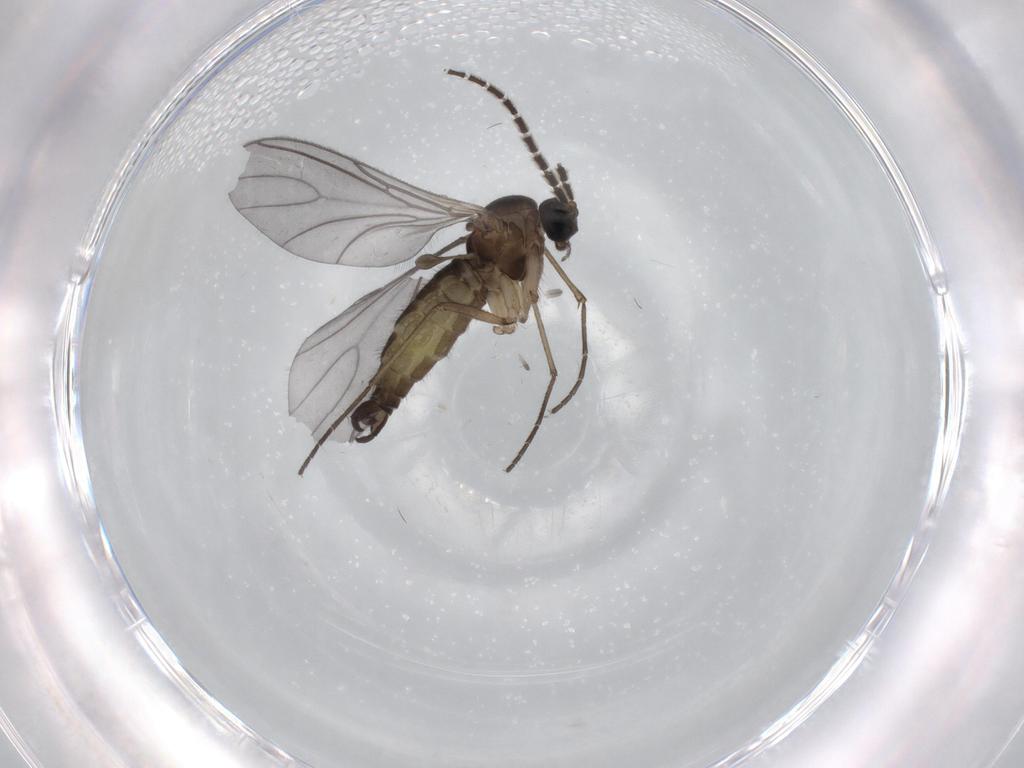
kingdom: Animalia
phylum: Arthropoda
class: Insecta
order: Diptera
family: Sciaridae
